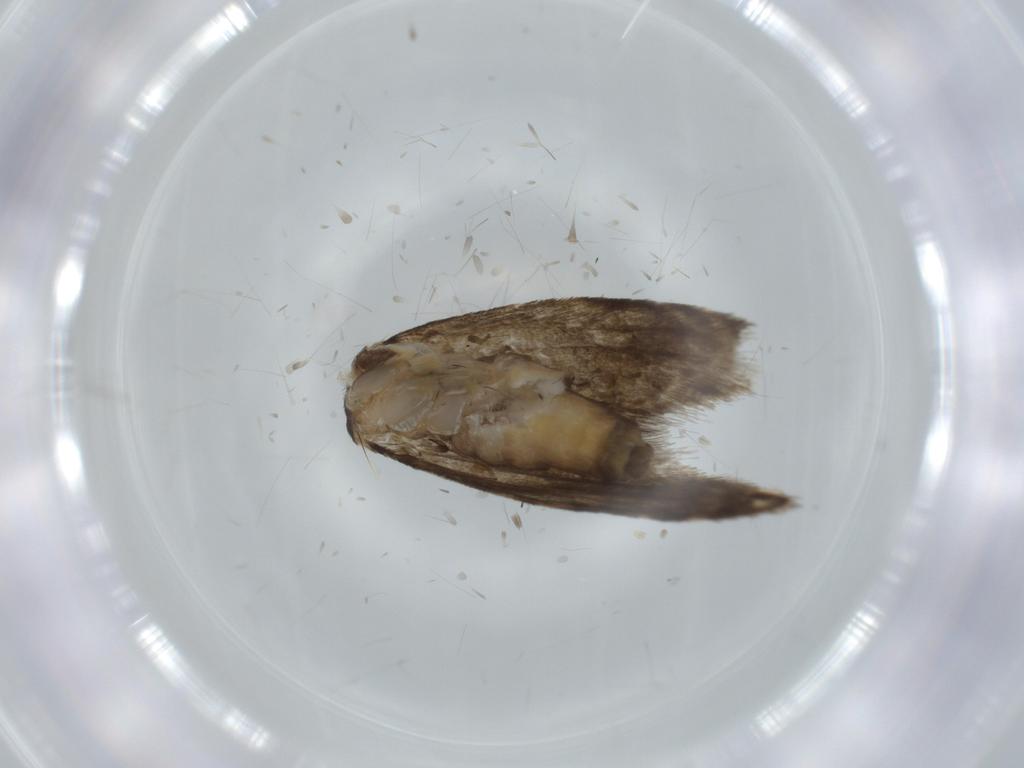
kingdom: Animalia
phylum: Arthropoda
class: Insecta
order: Lepidoptera
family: Tineidae
